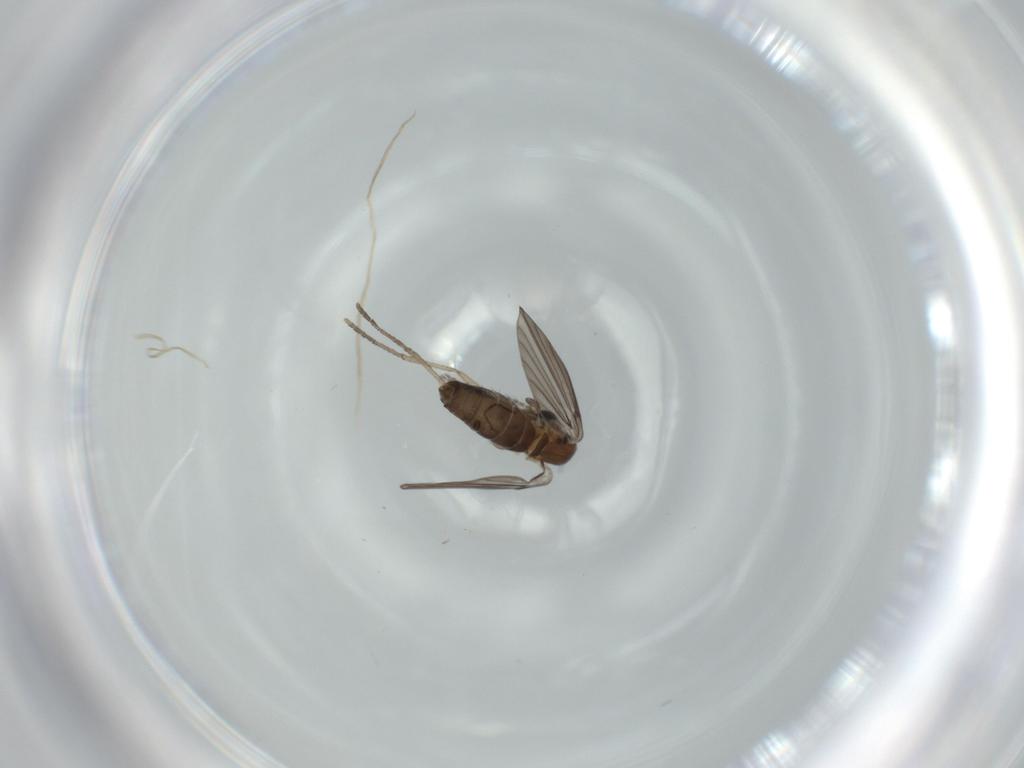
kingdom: Animalia
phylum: Arthropoda
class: Insecta
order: Diptera
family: Psychodidae
